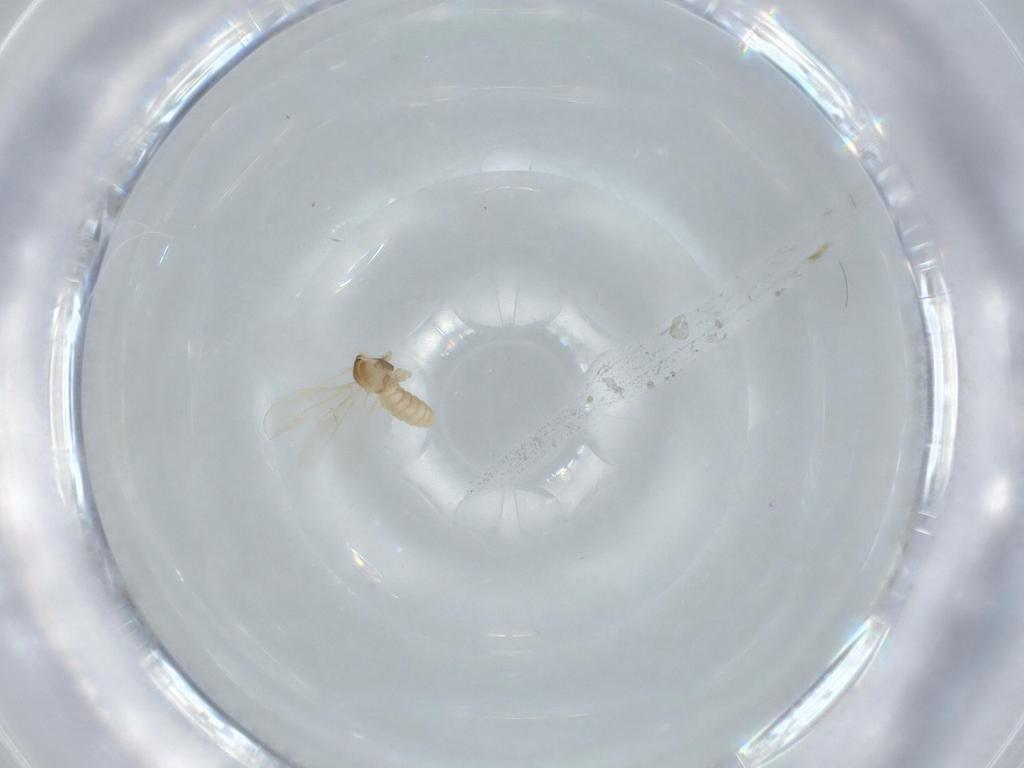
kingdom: Animalia
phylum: Arthropoda
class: Insecta
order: Diptera
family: Cecidomyiidae
